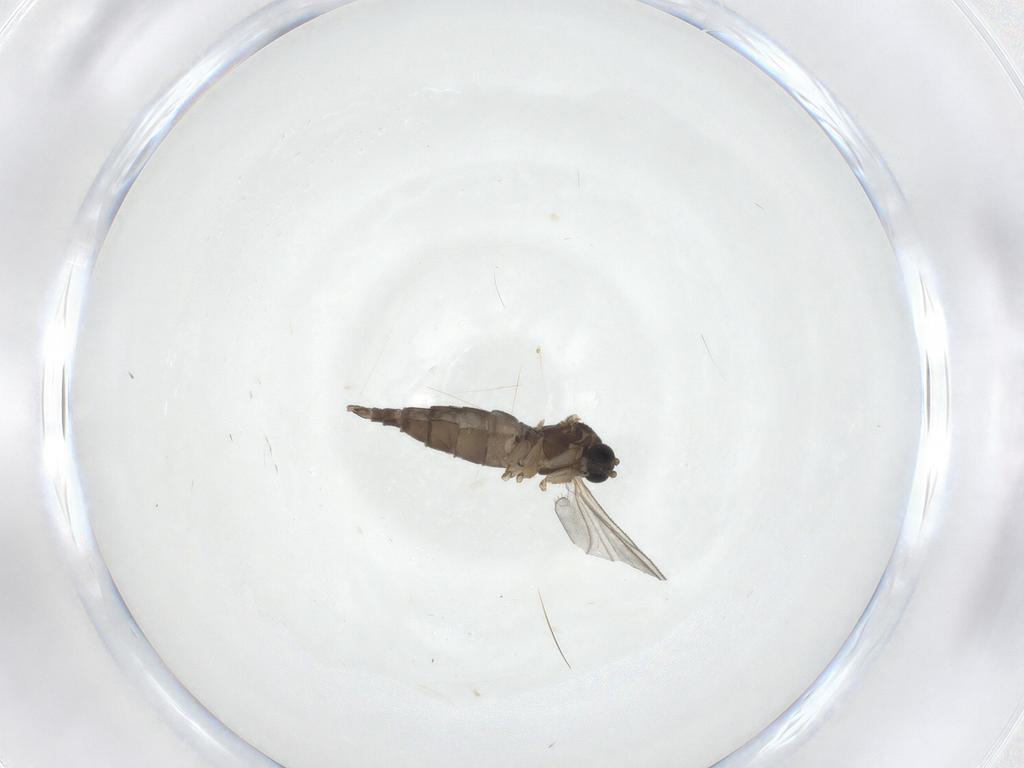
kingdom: Animalia
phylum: Arthropoda
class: Insecta
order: Diptera
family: Sciaridae
